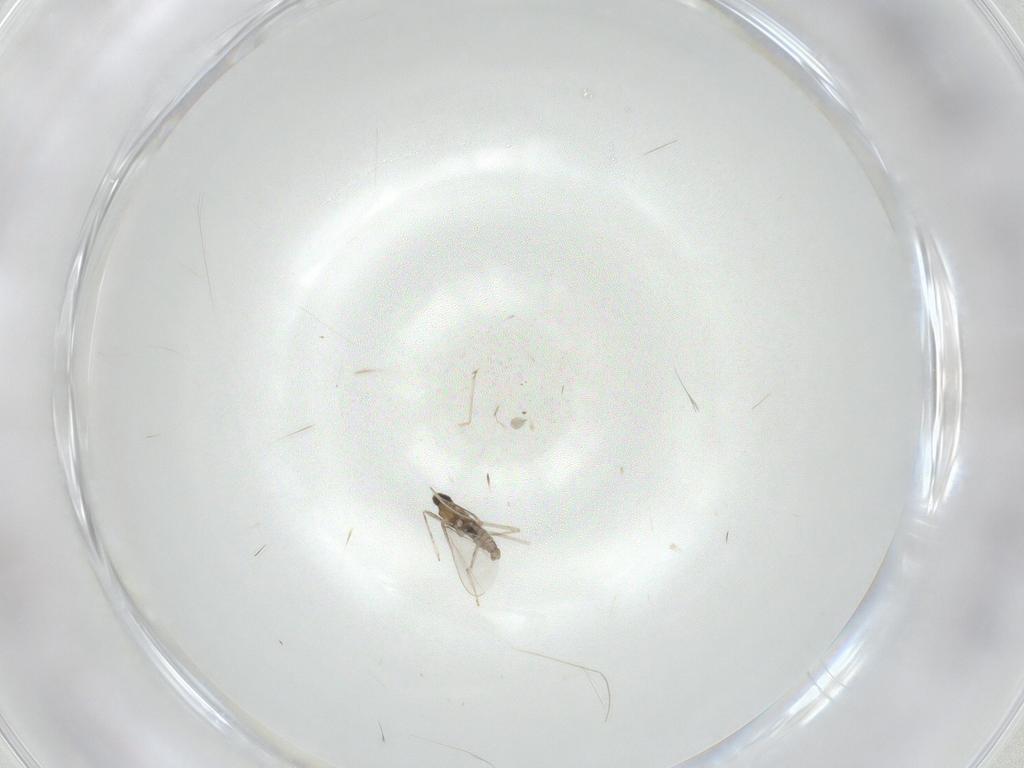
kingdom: Animalia
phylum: Arthropoda
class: Insecta
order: Diptera
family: Cecidomyiidae
